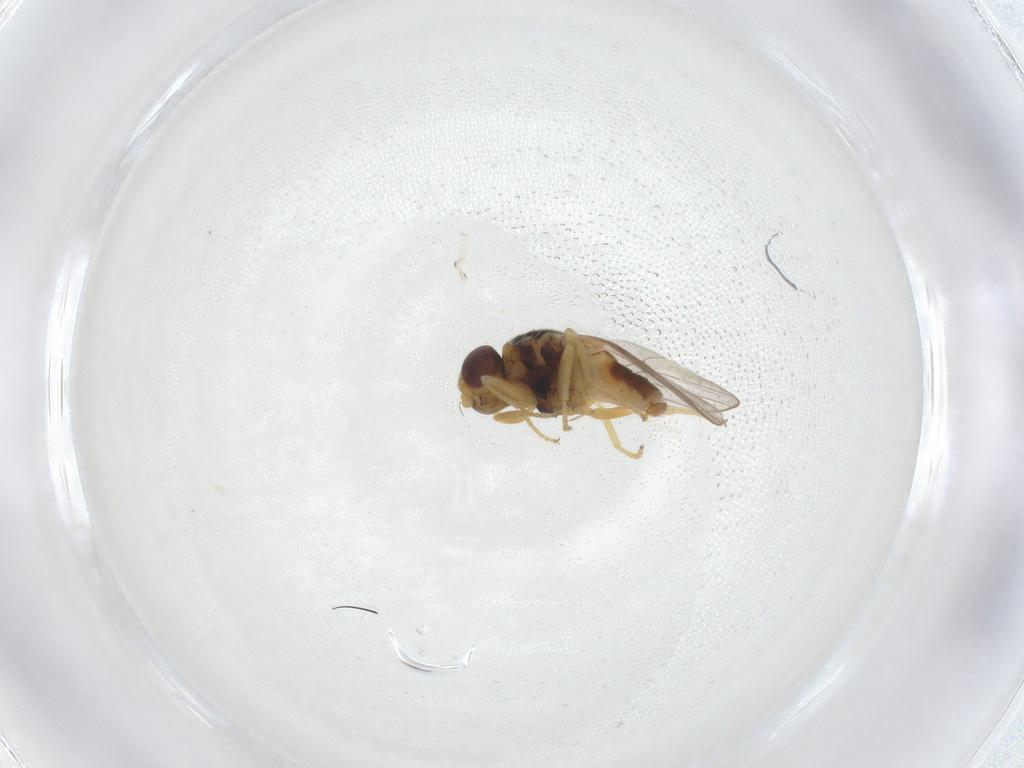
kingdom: Animalia
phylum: Arthropoda
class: Insecta
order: Diptera
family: Chloropidae
